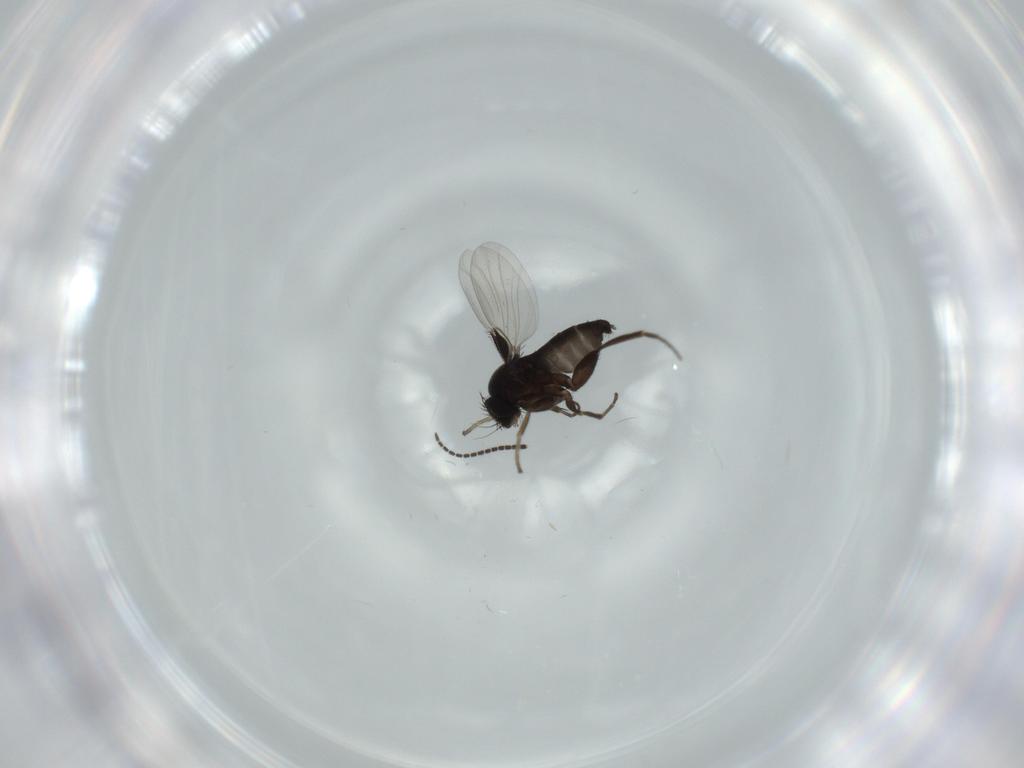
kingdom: Animalia
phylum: Arthropoda
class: Insecta
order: Diptera
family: Sciaridae
